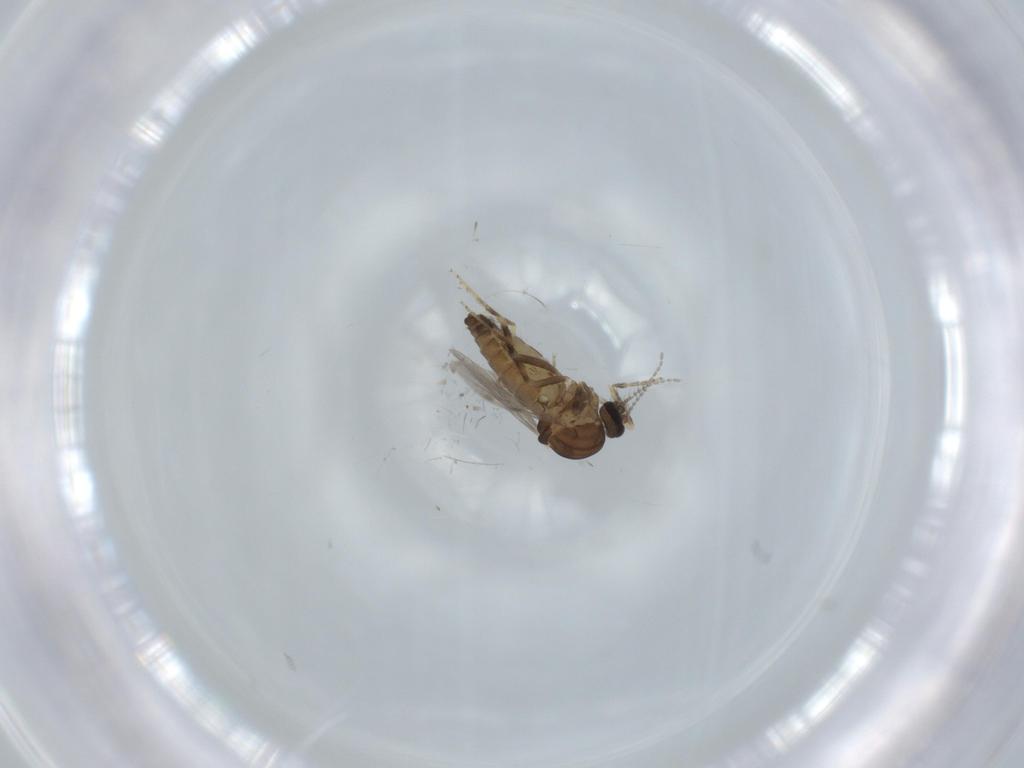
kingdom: Animalia
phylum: Arthropoda
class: Insecta
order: Diptera
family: Ceratopogonidae
